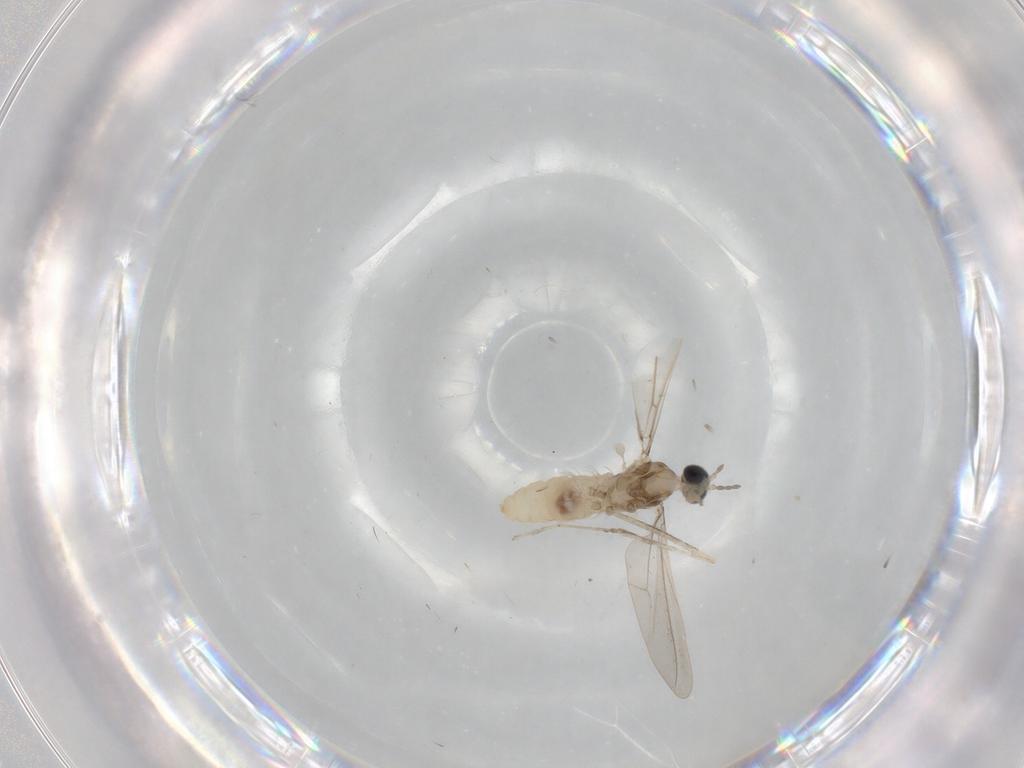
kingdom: Animalia
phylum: Arthropoda
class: Insecta
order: Diptera
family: Cecidomyiidae
